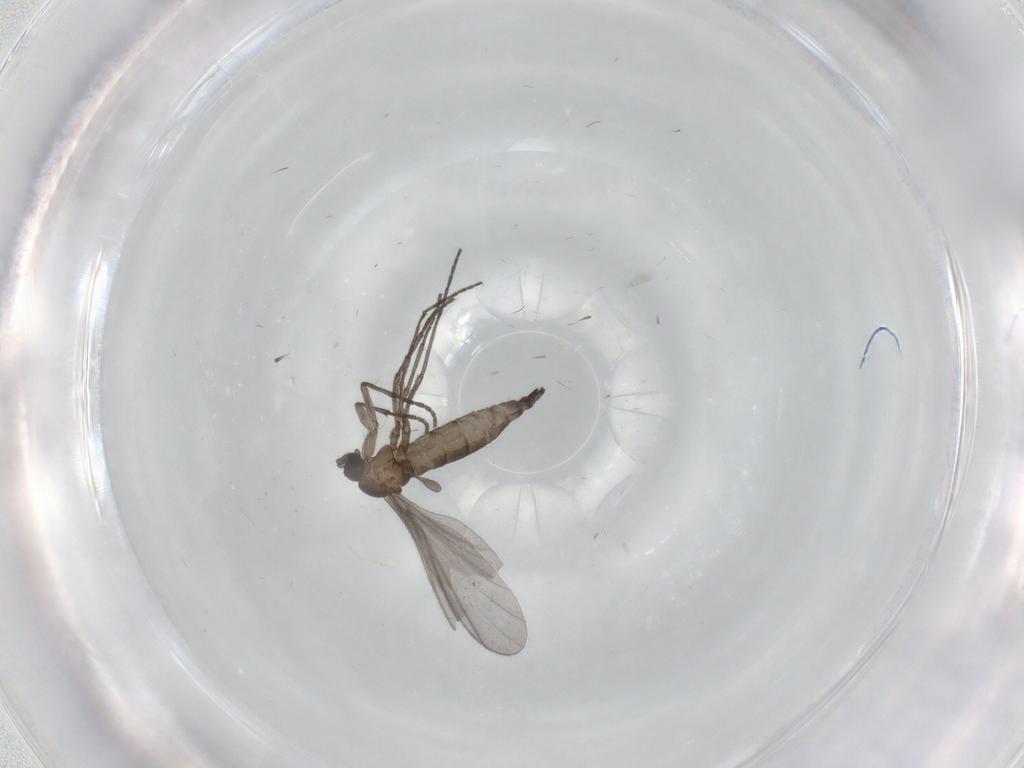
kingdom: Animalia
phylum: Arthropoda
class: Insecta
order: Diptera
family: Sciaridae
